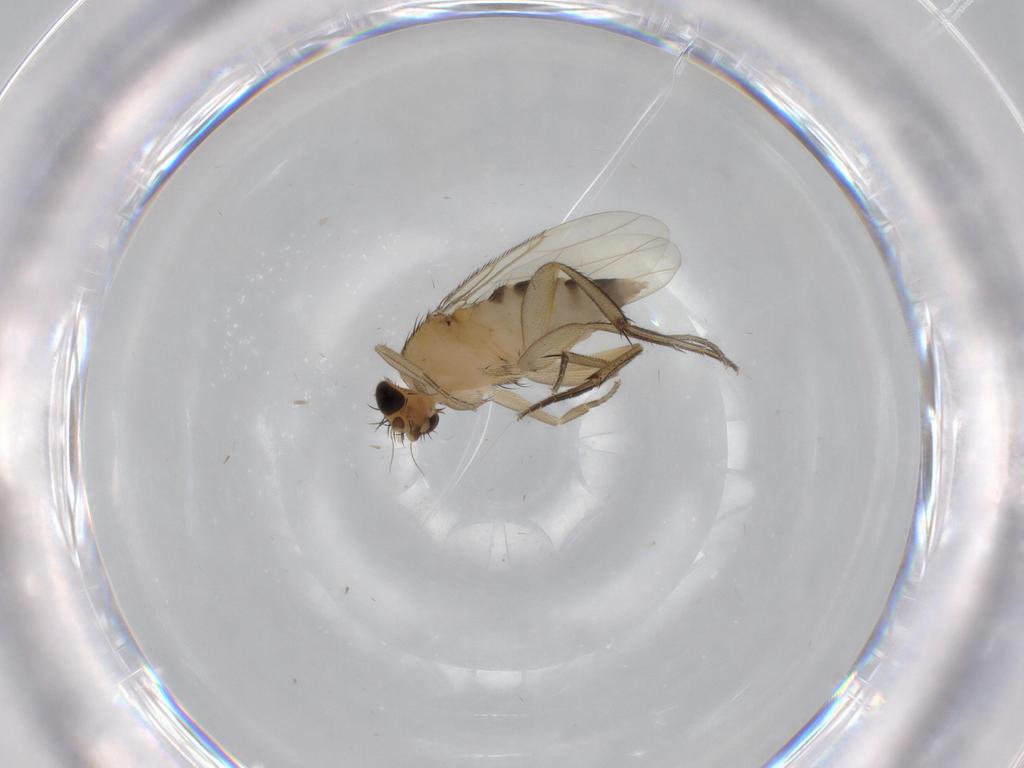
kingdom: Animalia
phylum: Arthropoda
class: Insecta
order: Diptera
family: Phoridae
